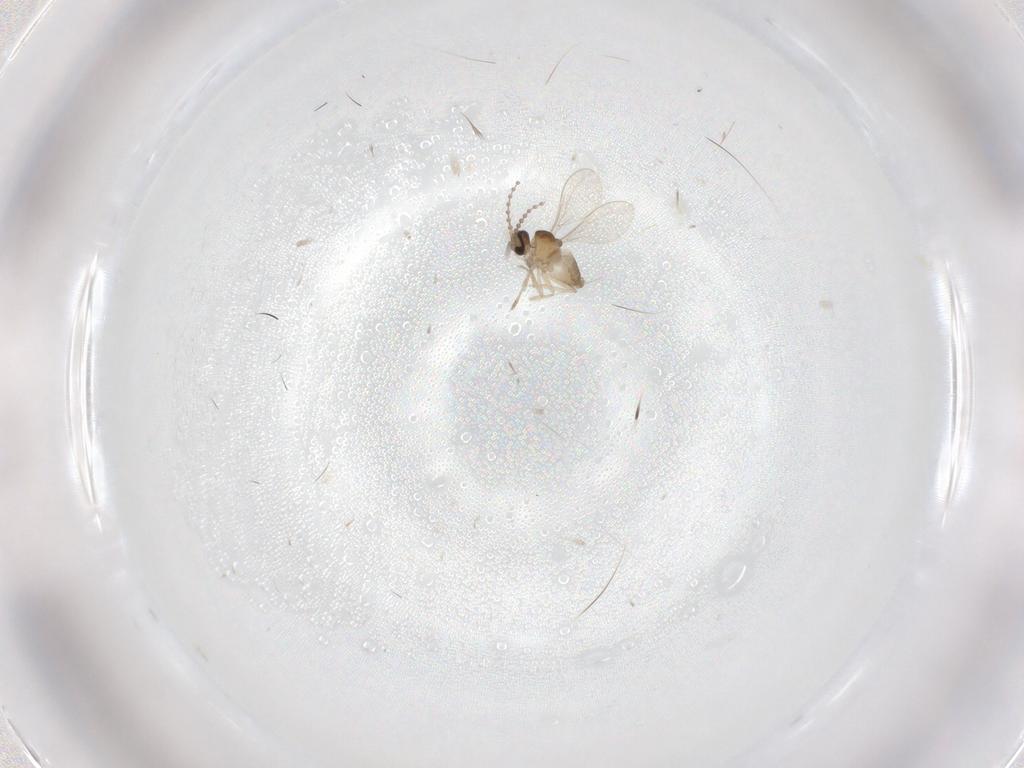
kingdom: Animalia
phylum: Arthropoda
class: Insecta
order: Diptera
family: Cecidomyiidae
